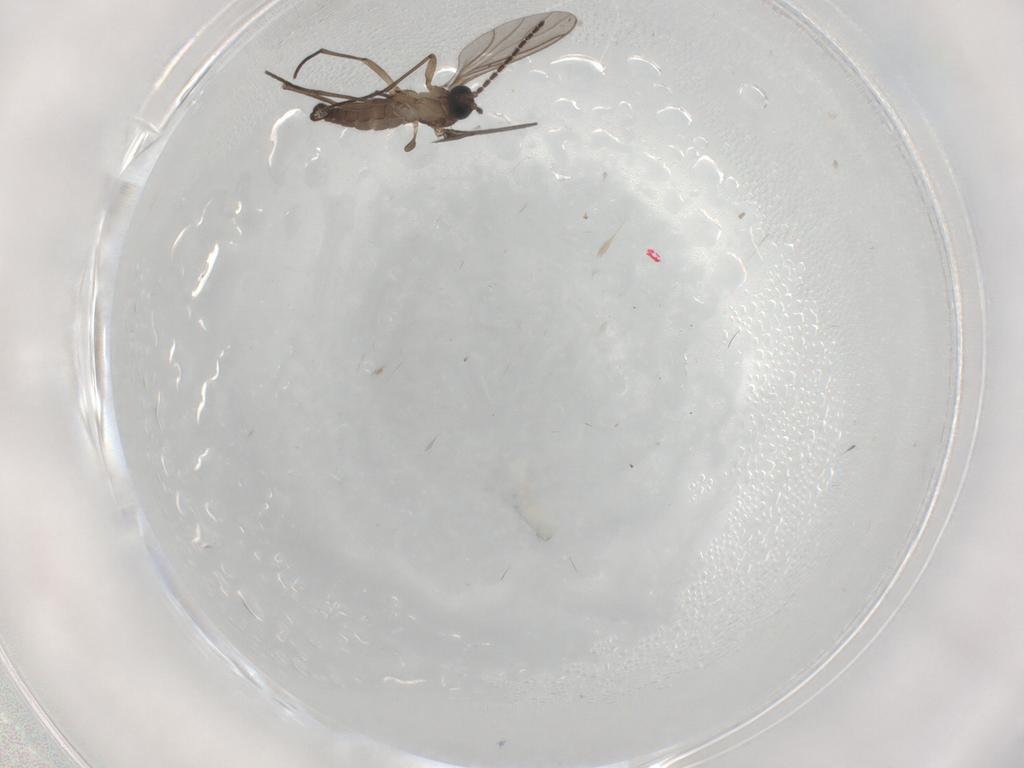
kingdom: Animalia
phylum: Arthropoda
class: Insecta
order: Diptera
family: Sciaridae
